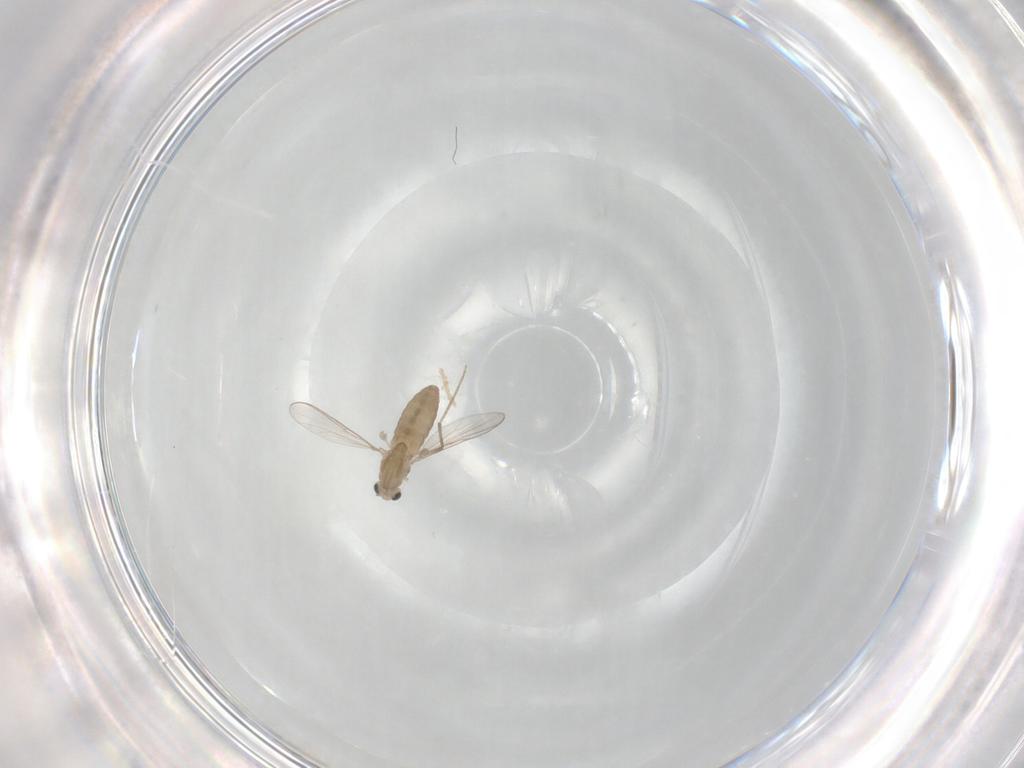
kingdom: Animalia
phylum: Arthropoda
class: Insecta
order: Diptera
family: Chironomidae
